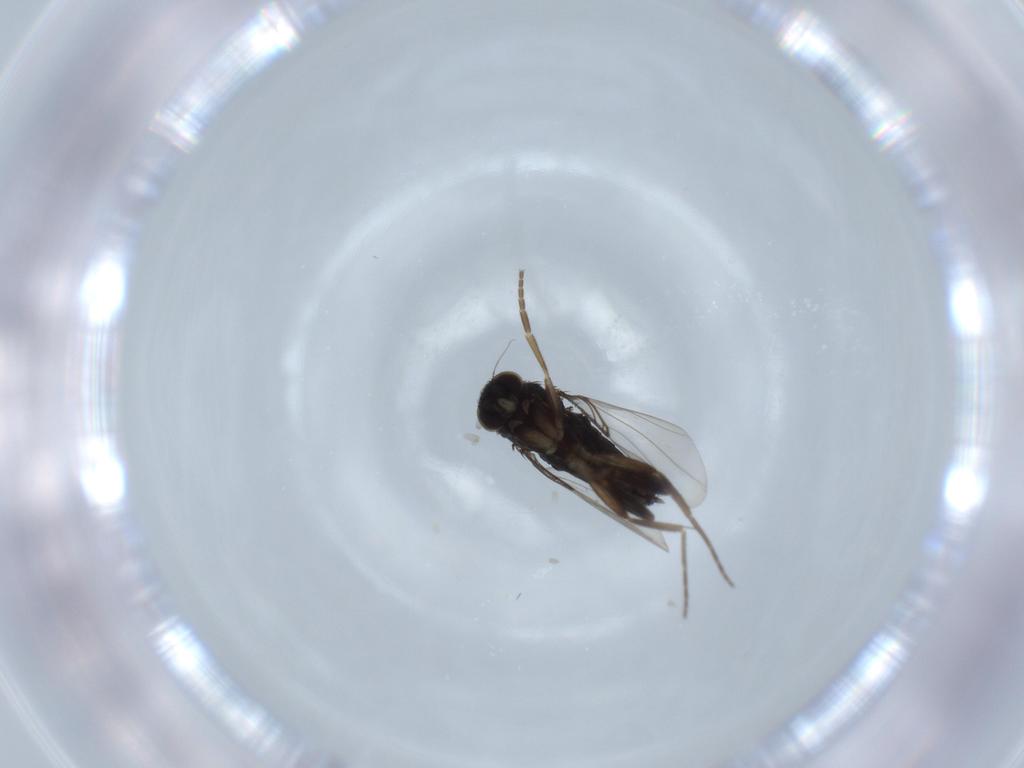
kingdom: Animalia
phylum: Arthropoda
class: Insecta
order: Diptera
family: Phoridae
